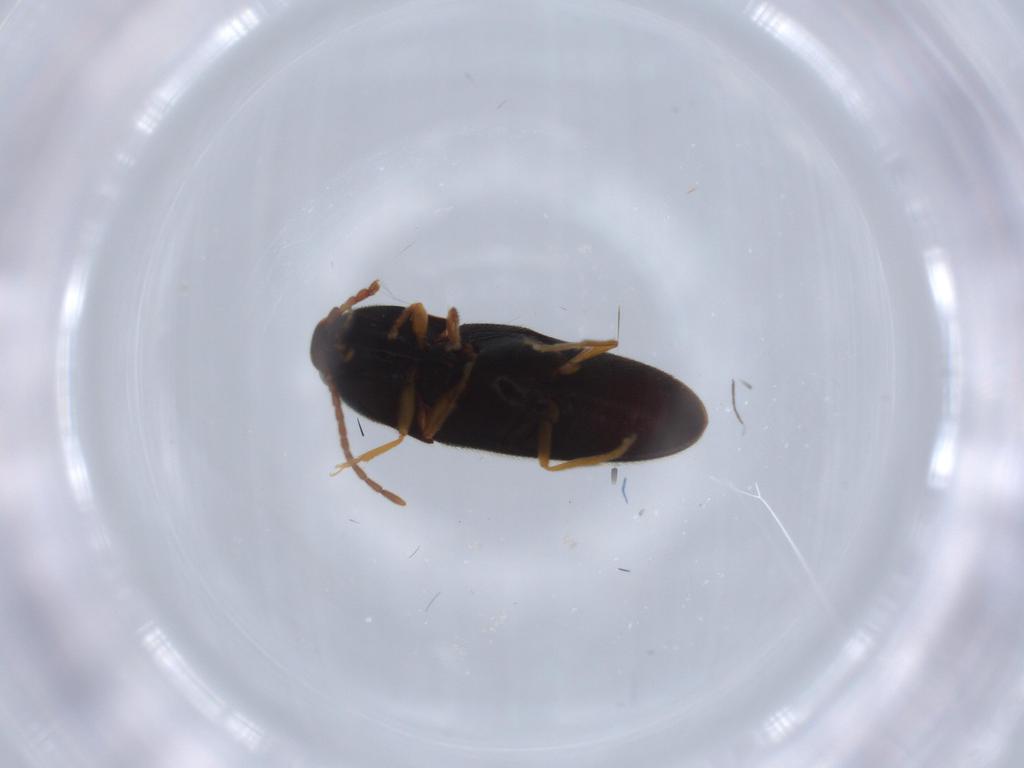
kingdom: Animalia
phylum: Arthropoda
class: Insecta
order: Coleoptera
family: Elateridae
